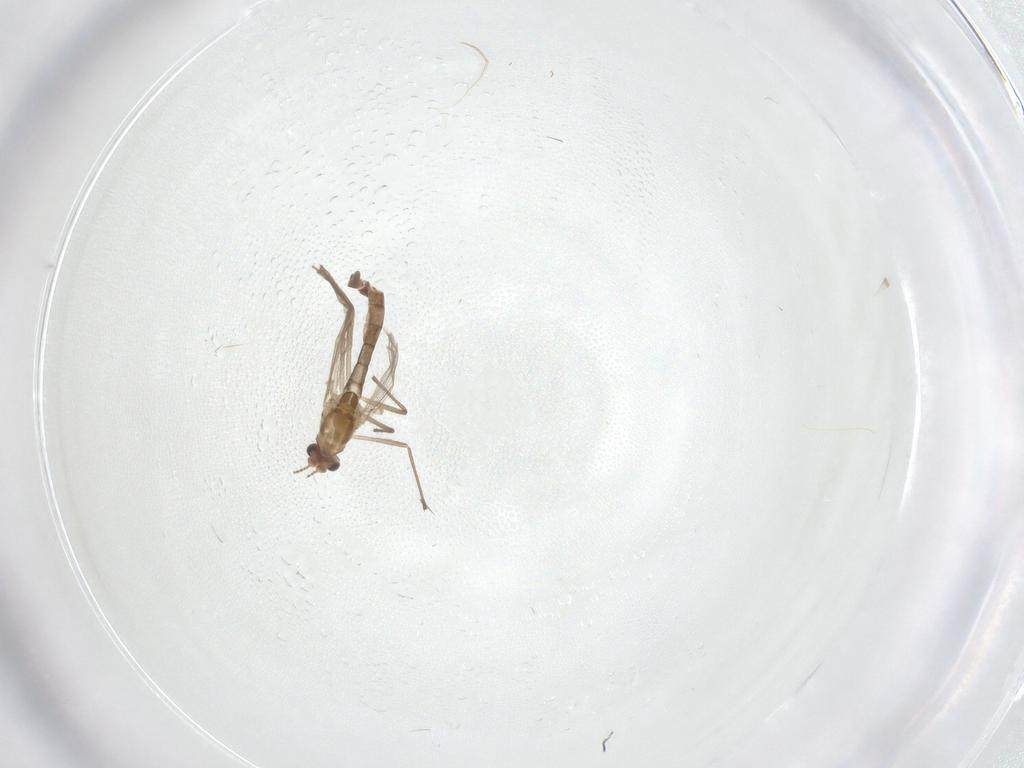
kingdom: Animalia
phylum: Arthropoda
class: Insecta
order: Diptera
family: Chironomidae
